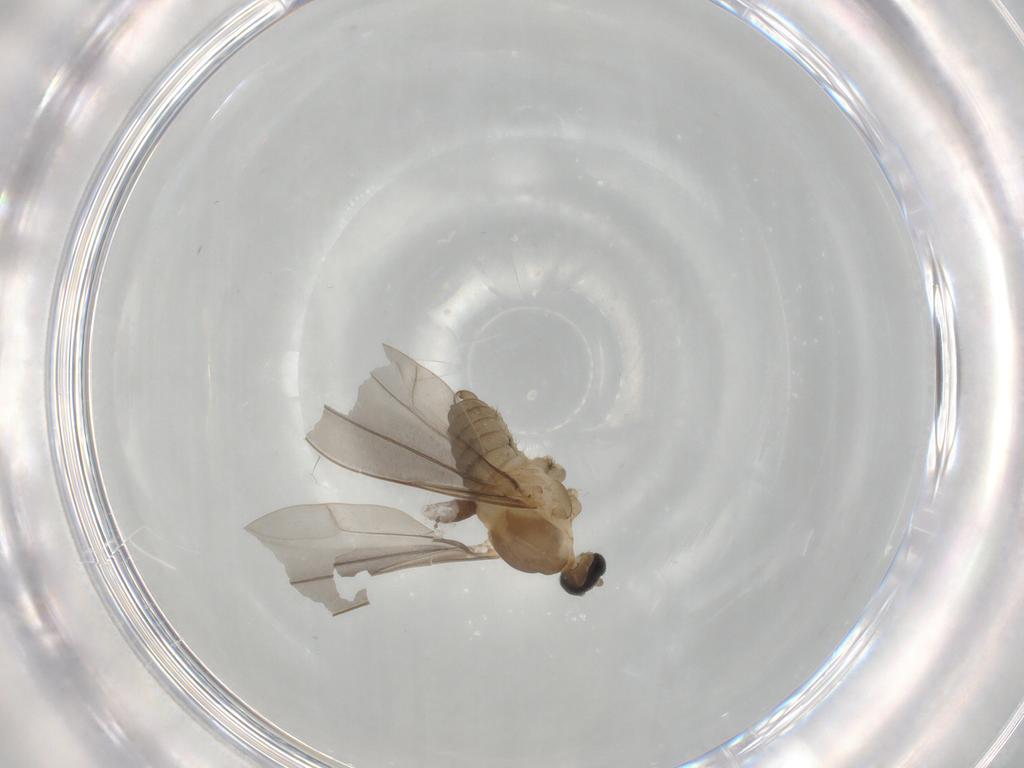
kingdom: Animalia
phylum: Arthropoda
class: Insecta
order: Diptera
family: Cecidomyiidae
